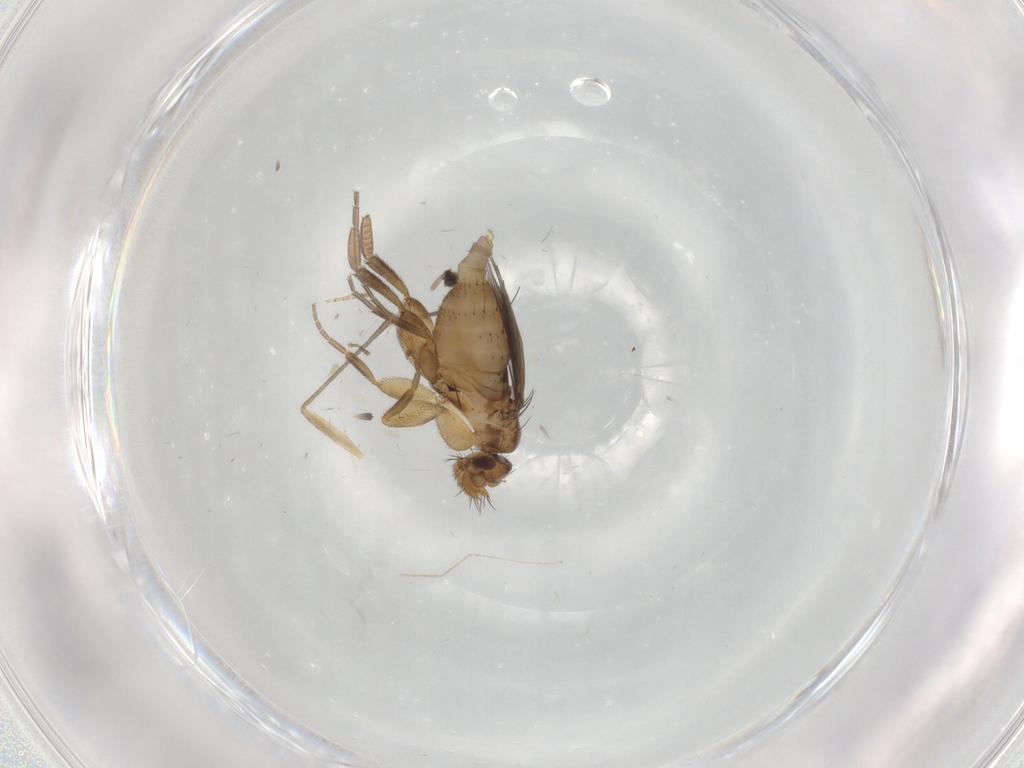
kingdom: Animalia
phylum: Arthropoda
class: Insecta
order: Diptera
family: Phoridae
